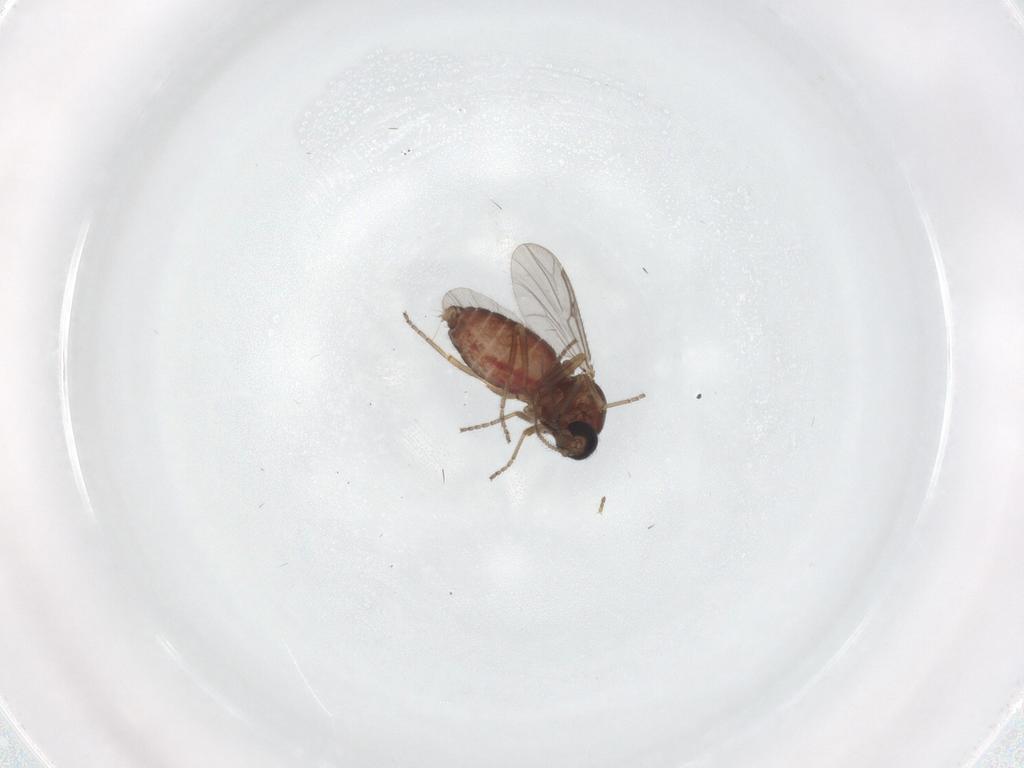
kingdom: Animalia
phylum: Arthropoda
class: Insecta
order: Diptera
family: Ceratopogonidae
